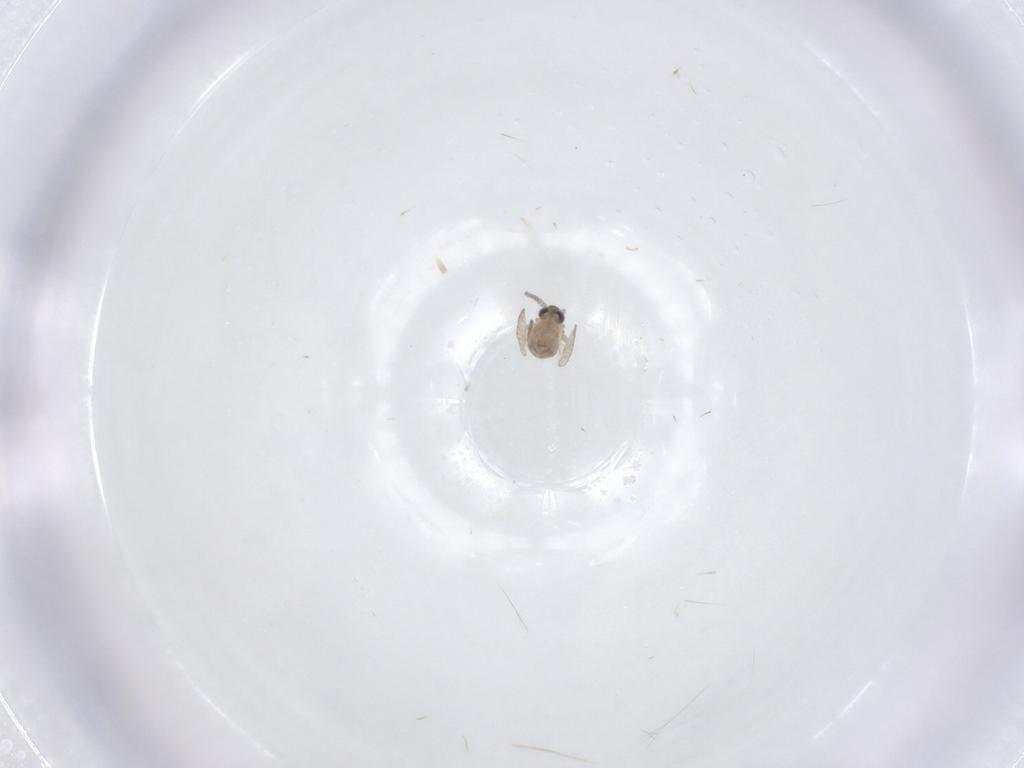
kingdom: Animalia
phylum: Arthropoda
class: Insecta
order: Diptera
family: Psychodidae
